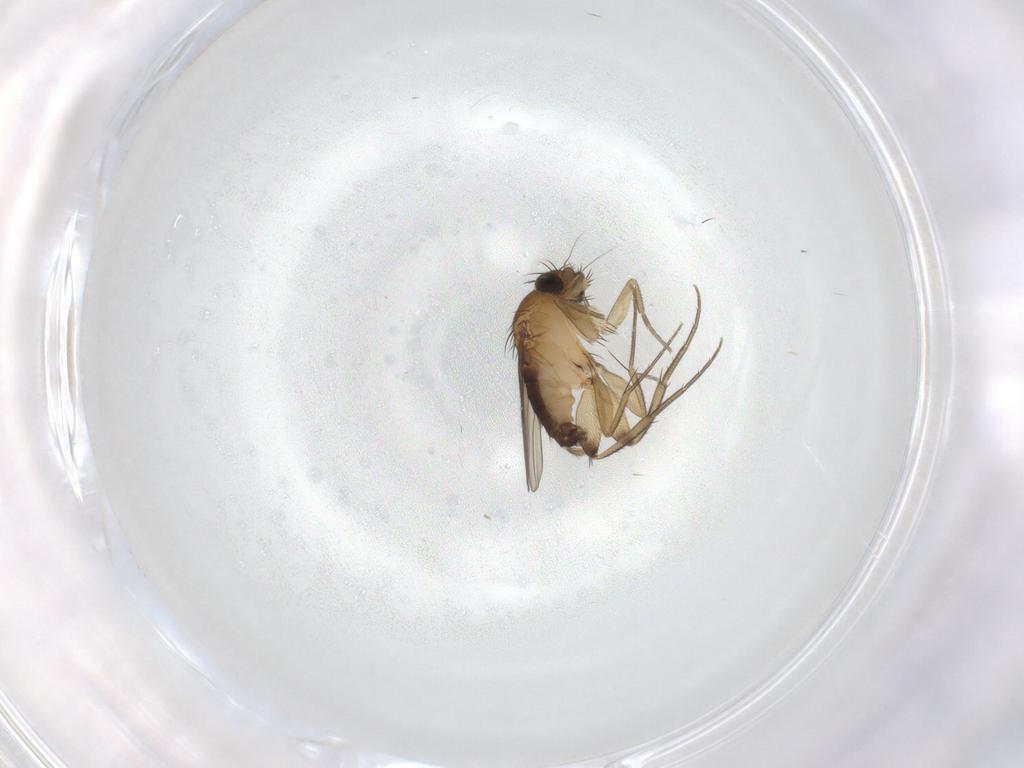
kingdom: Animalia
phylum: Arthropoda
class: Insecta
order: Diptera
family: Phoridae
